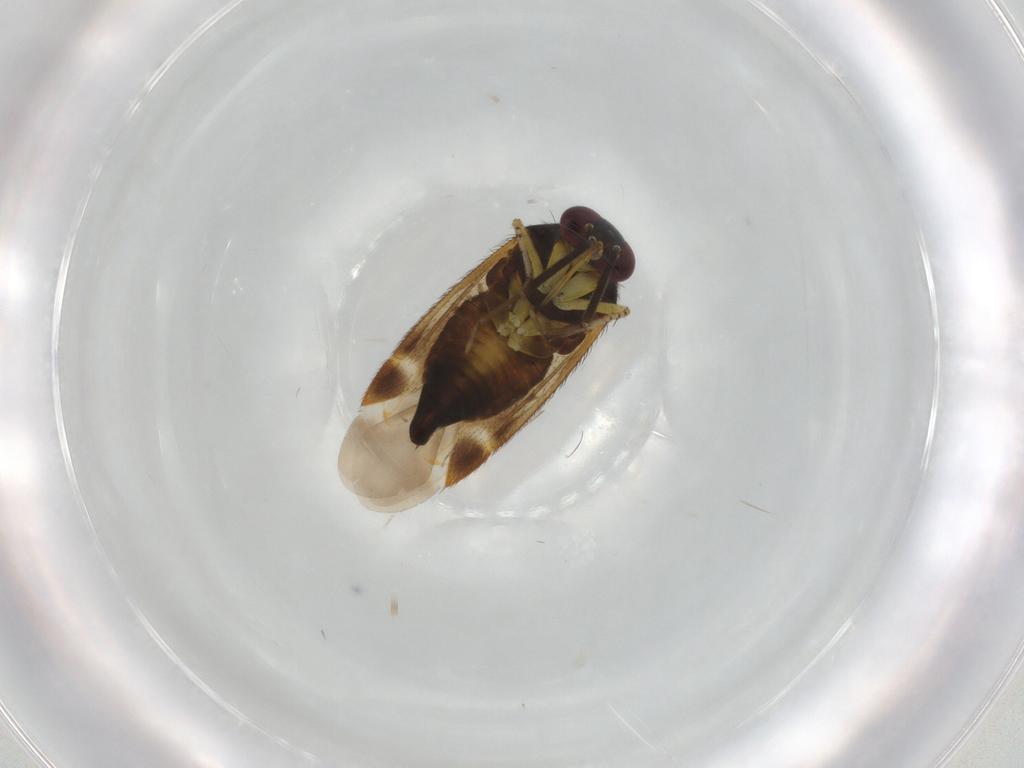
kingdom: Animalia
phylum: Arthropoda
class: Insecta
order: Hemiptera
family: Miridae
